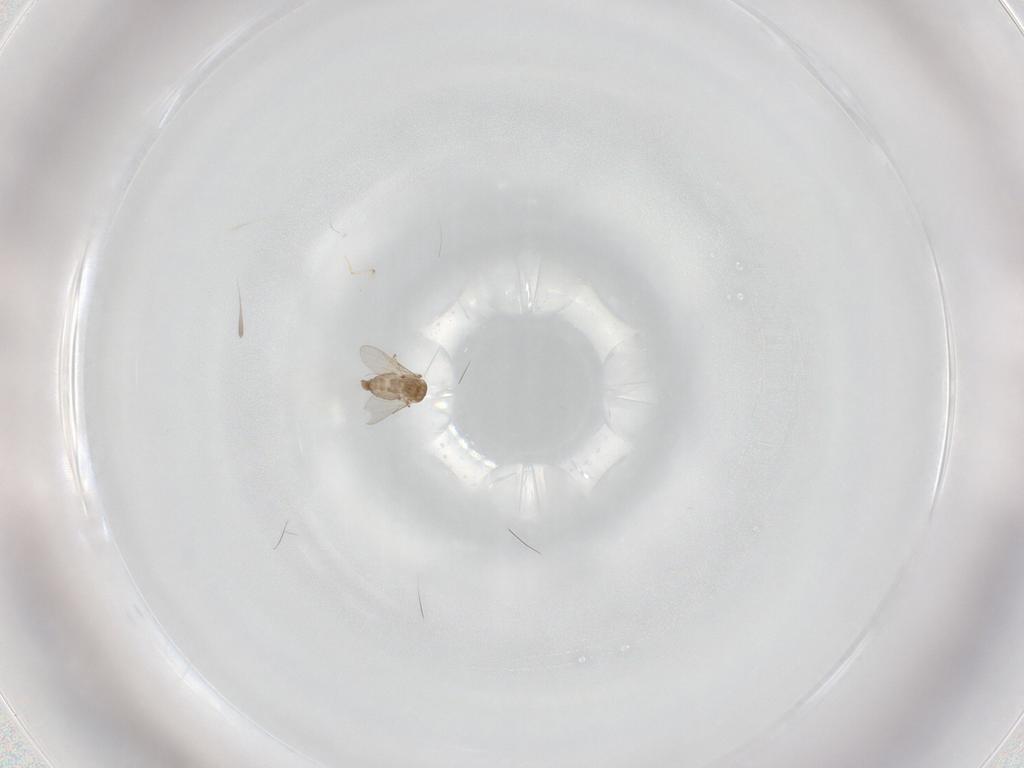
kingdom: Animalia
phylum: Arthropoda
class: Insecta
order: Diptera
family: Ceratopogonidae
